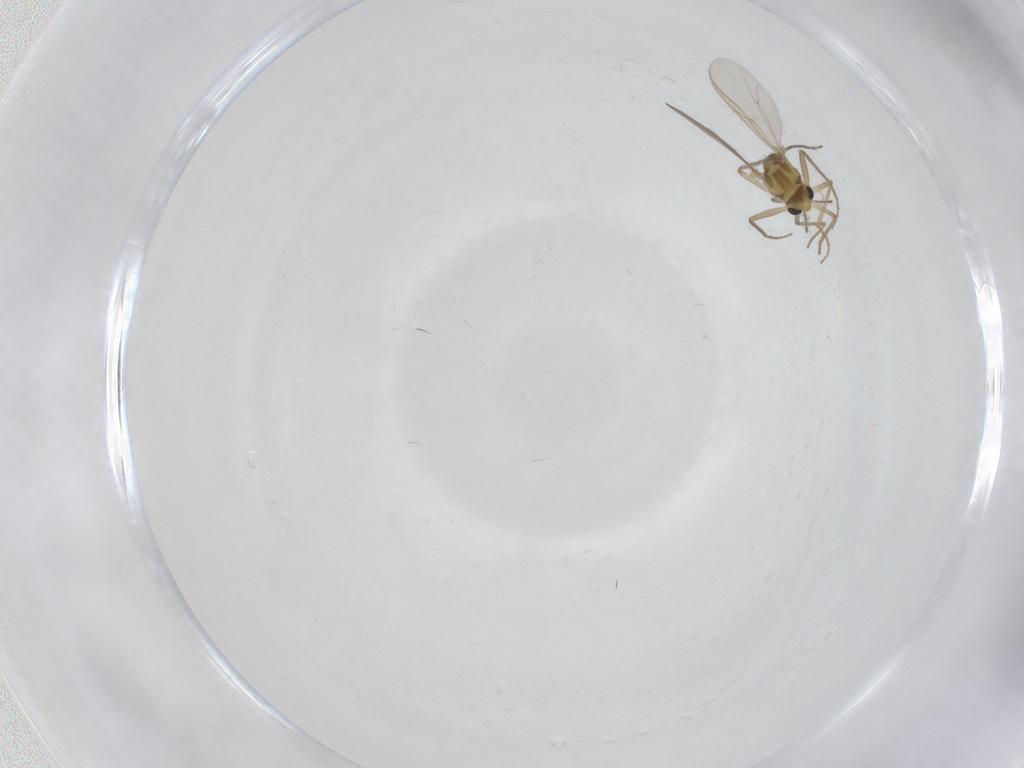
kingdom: Animalia
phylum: Arthropoda
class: Insecta
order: Diptera
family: Chironomidae
